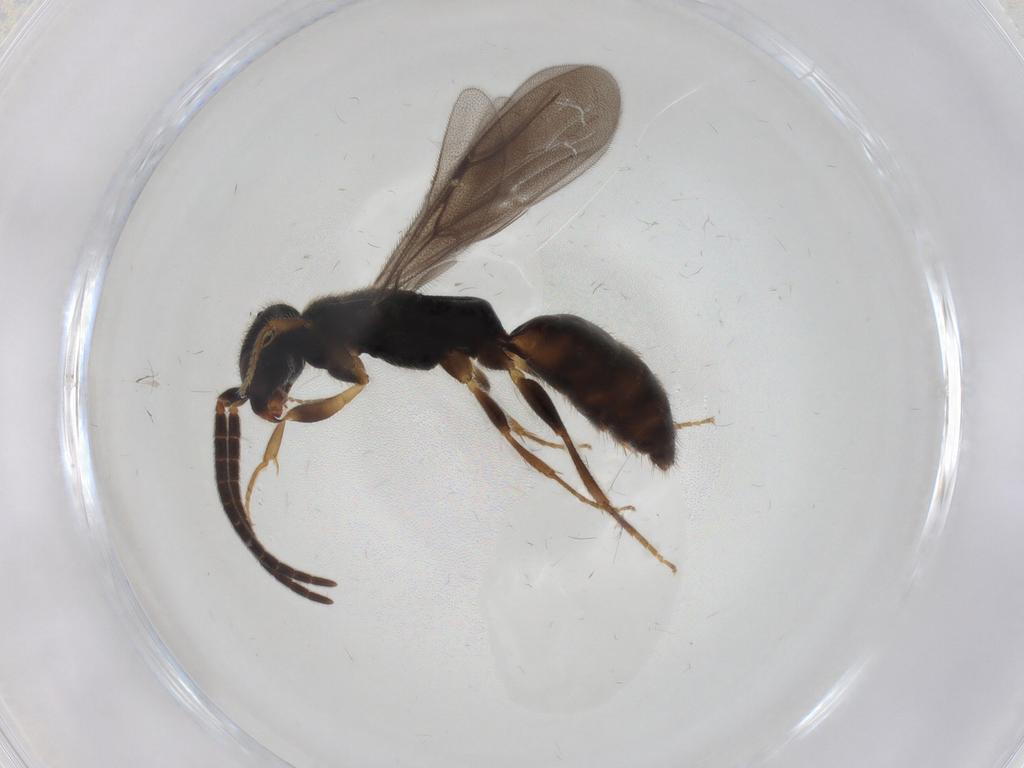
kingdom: Animalia
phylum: Arthropoda
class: Insecta
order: Hymenoptera
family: Bethylidae
